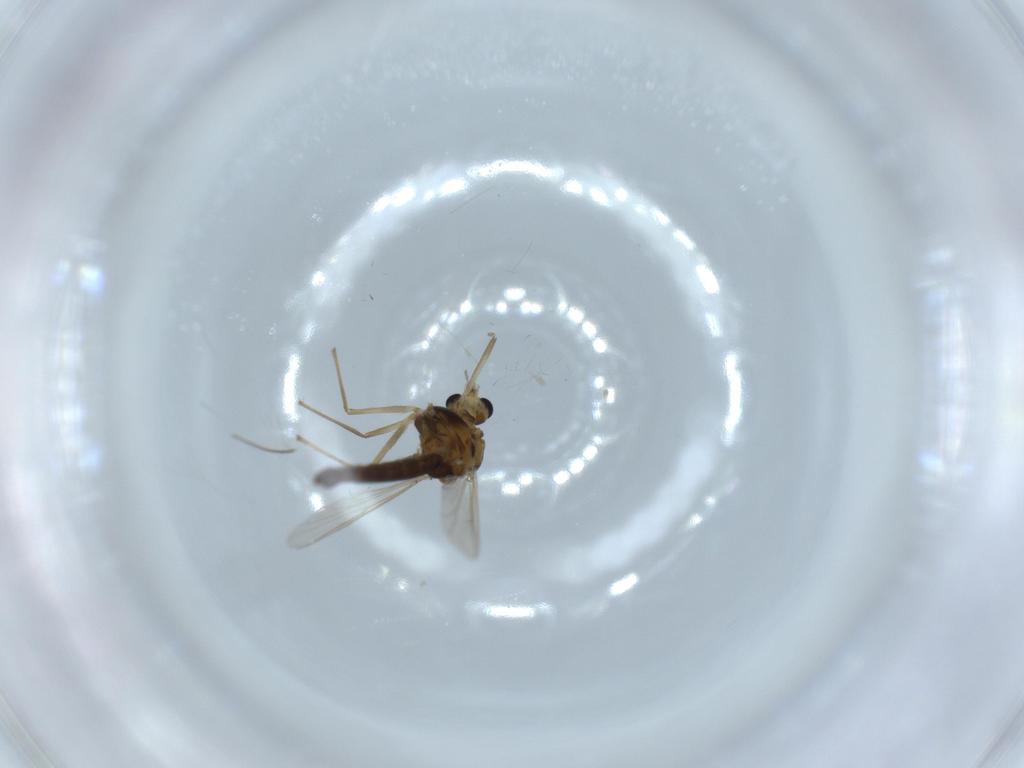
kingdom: Animalia
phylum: Arthropoda
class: Insecta
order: Diptera
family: Chironomidae
